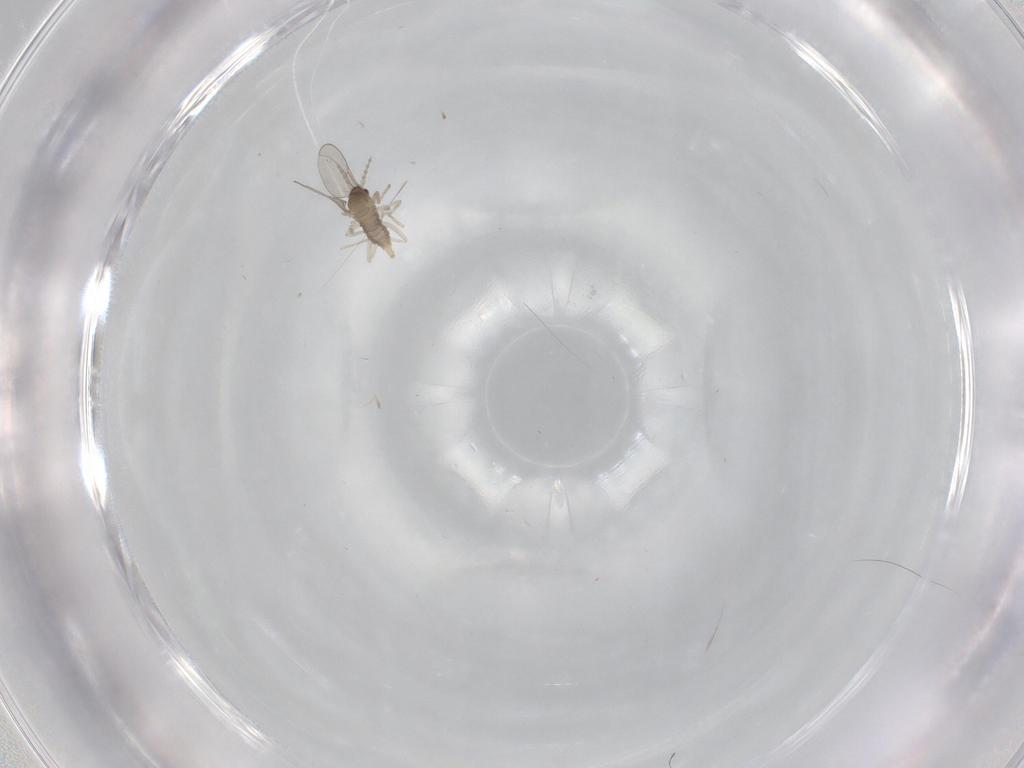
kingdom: Animalia
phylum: Arthropoda
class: Insecta
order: Diptera
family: Cecidomyiidae
